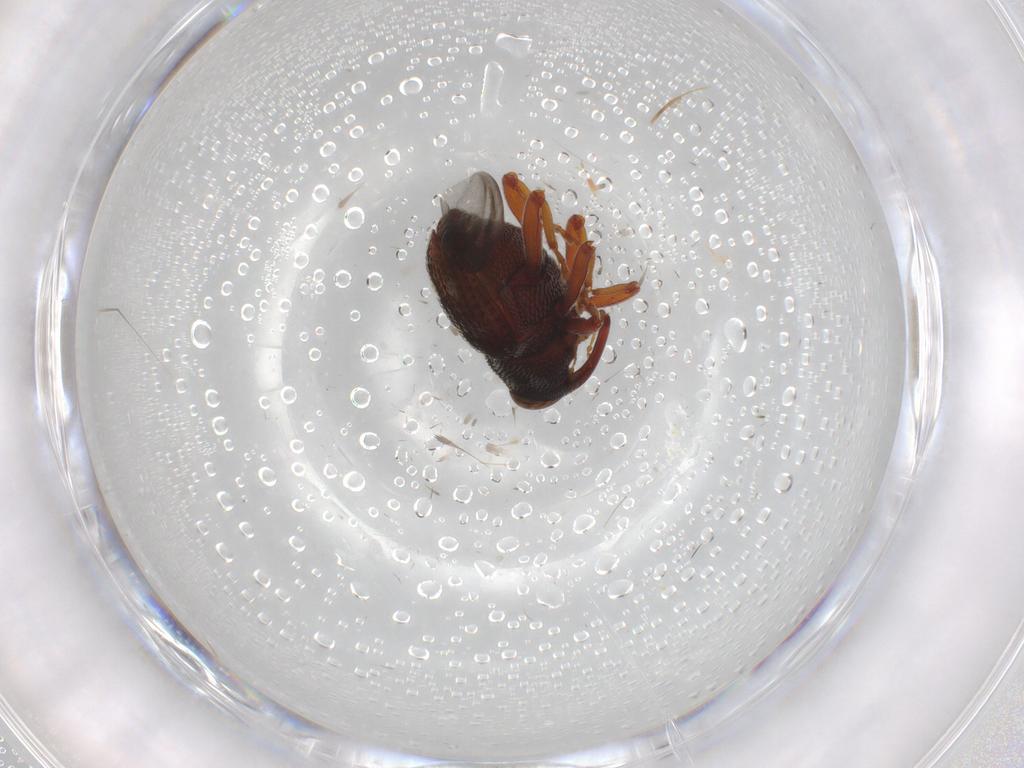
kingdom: Animalia
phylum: Arthropoda
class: Insecta
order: Coleoptera
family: Curculionidae
